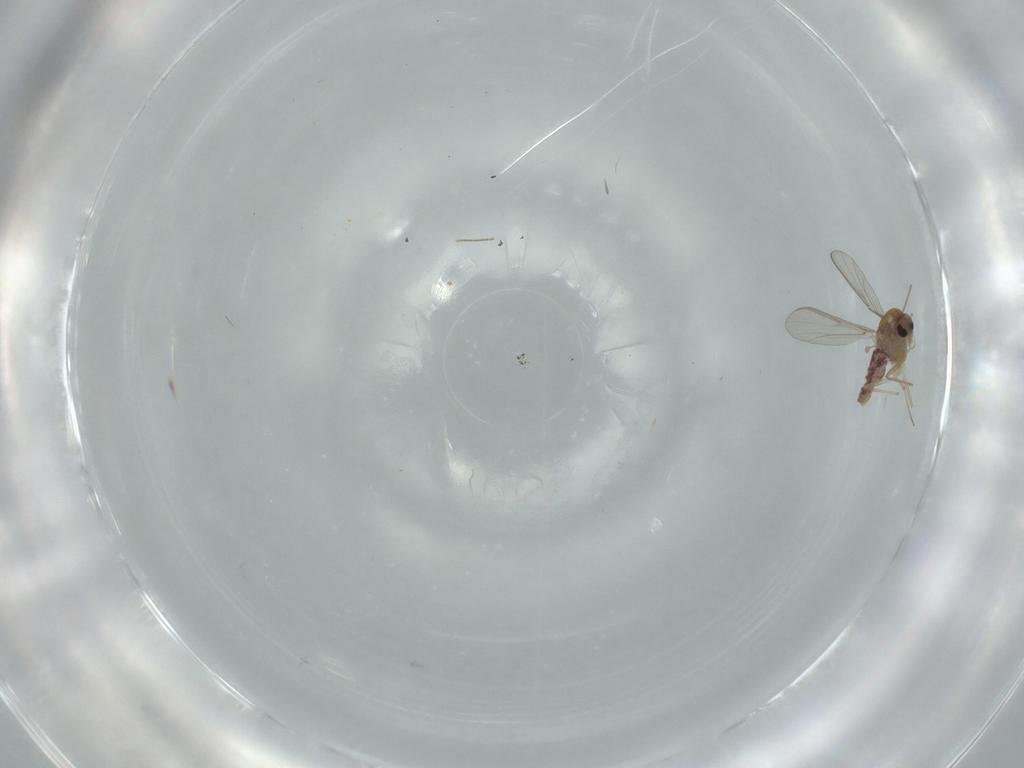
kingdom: Animalia
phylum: Arthropoda
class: Insecta
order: Diptera
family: Chironomidae
